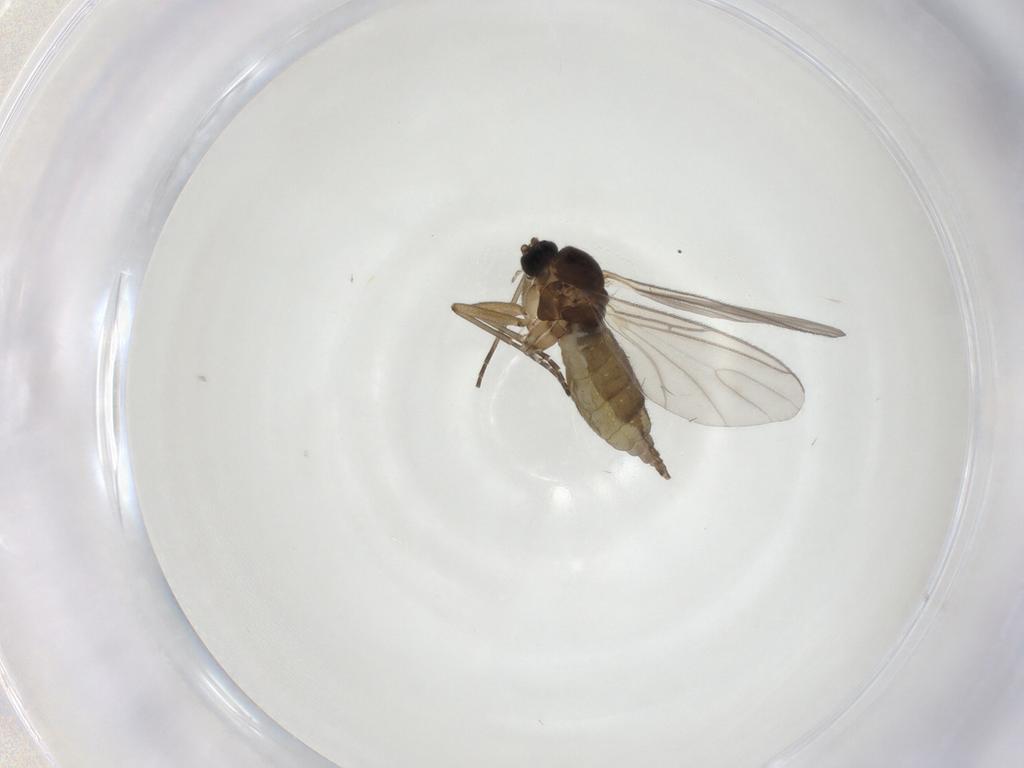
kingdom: Animalia
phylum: Arthropoda
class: Insecta
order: Diptera
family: Chironomidae
